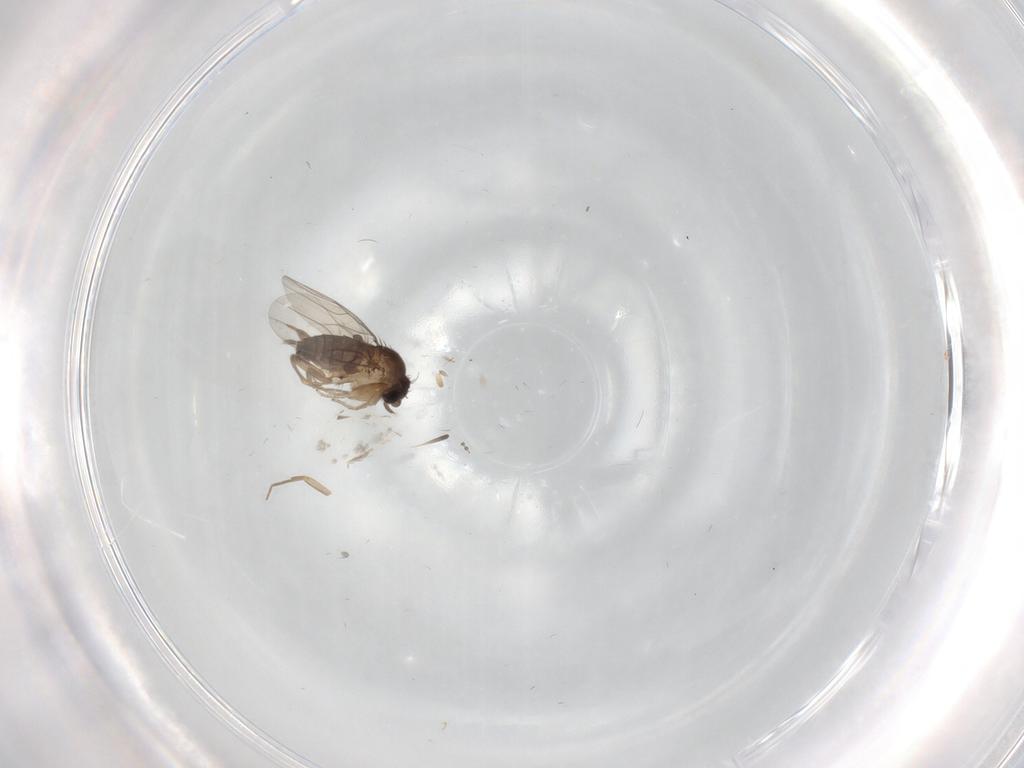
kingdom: Animalia
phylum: Arthropoda
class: Insecta
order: Diptera
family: Phoridae
